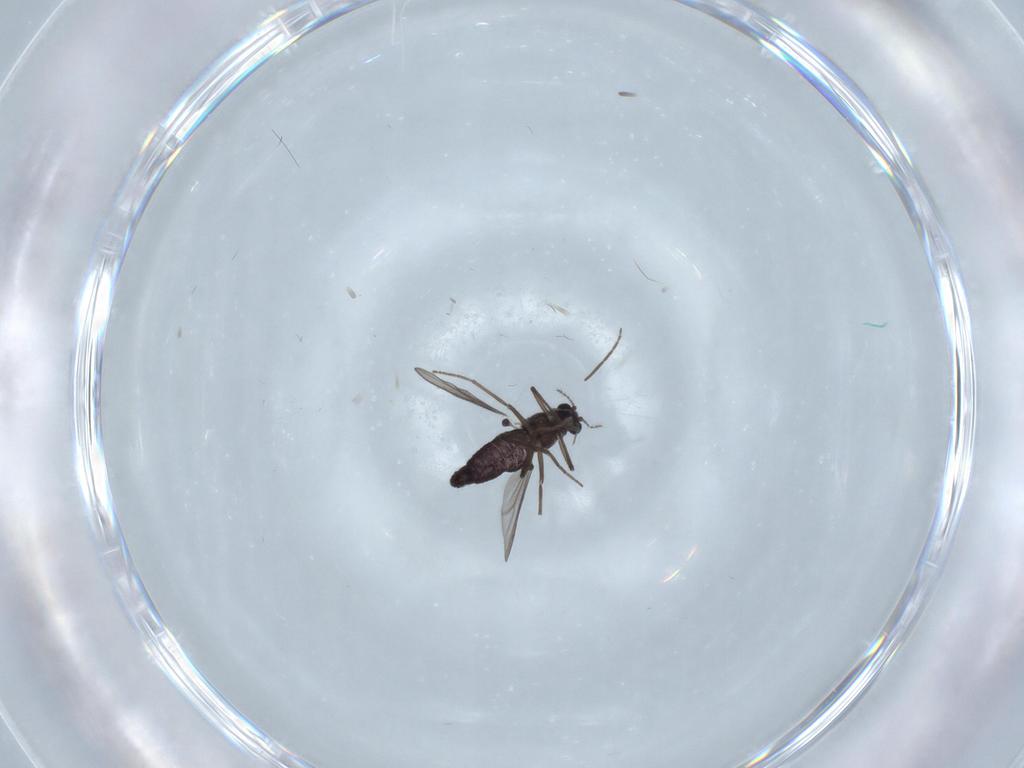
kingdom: Animalia
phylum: Arthropoda
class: Insecta
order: Diptera
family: Chironomidae
